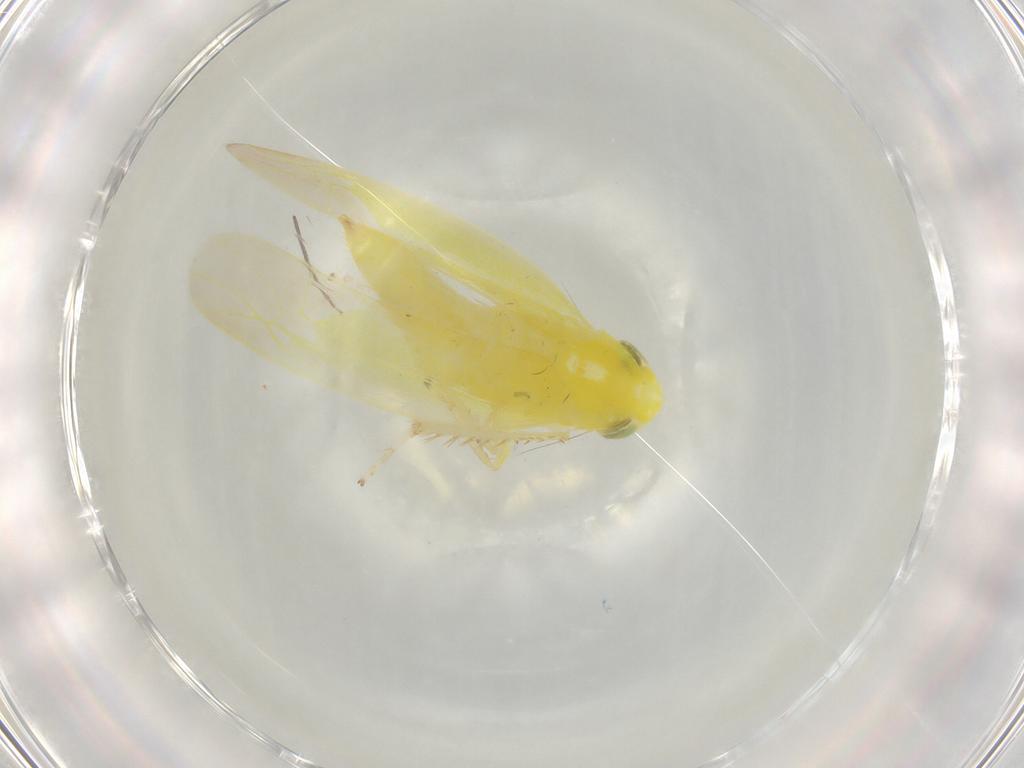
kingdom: Animalia
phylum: Arthropoda
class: Insecta
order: Hemiptera
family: Cicadellidae
